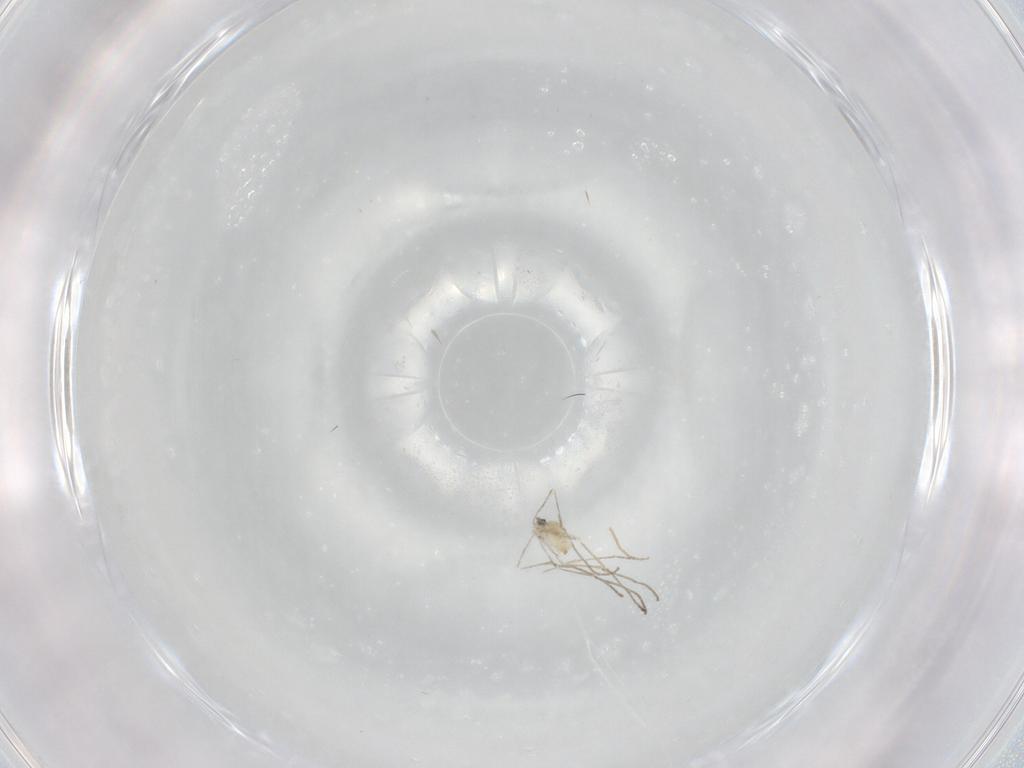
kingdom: Animalia
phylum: Arthropoda
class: Insecta
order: Diptera
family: Cecidomyiidae
